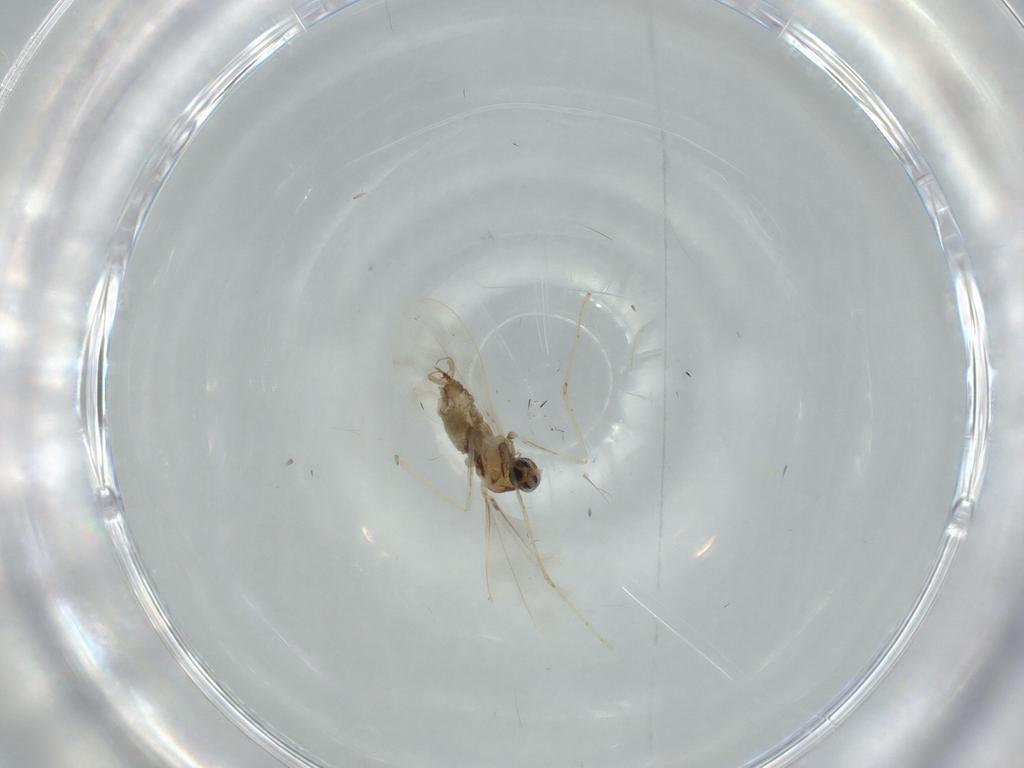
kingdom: Animalia
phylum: Arthropoda
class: Insecta
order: Diptera
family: Cecidomyiidae
